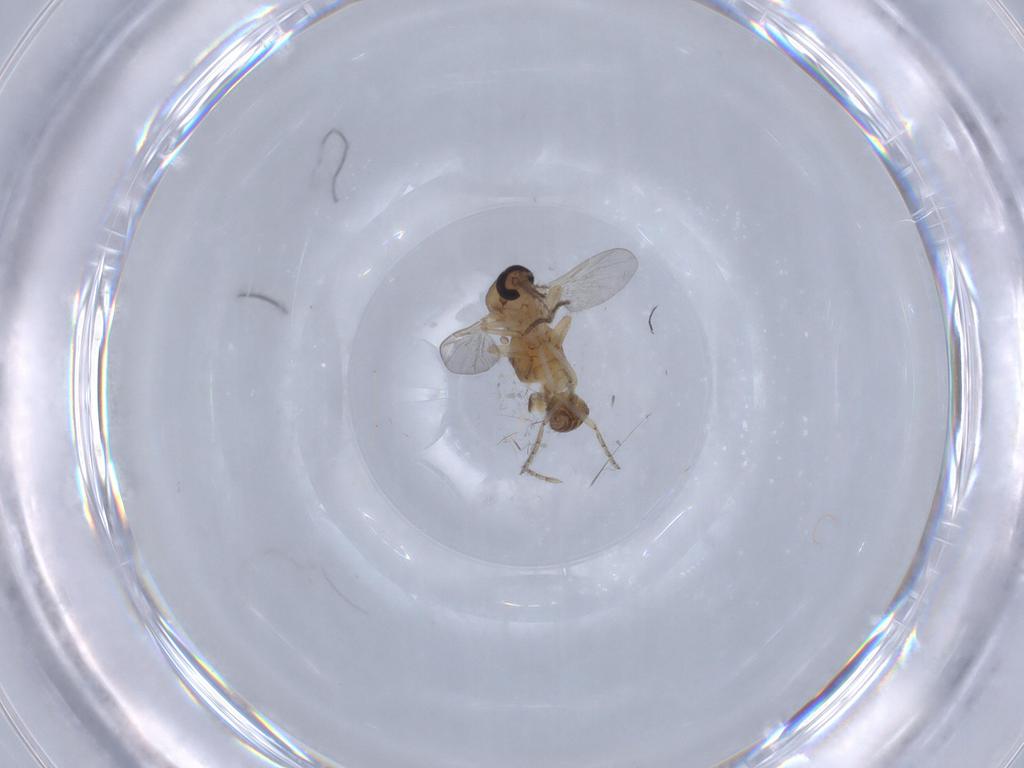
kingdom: Animalia
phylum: Arthropoda
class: Insecta
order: Diptera
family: Ceratopogonidae
